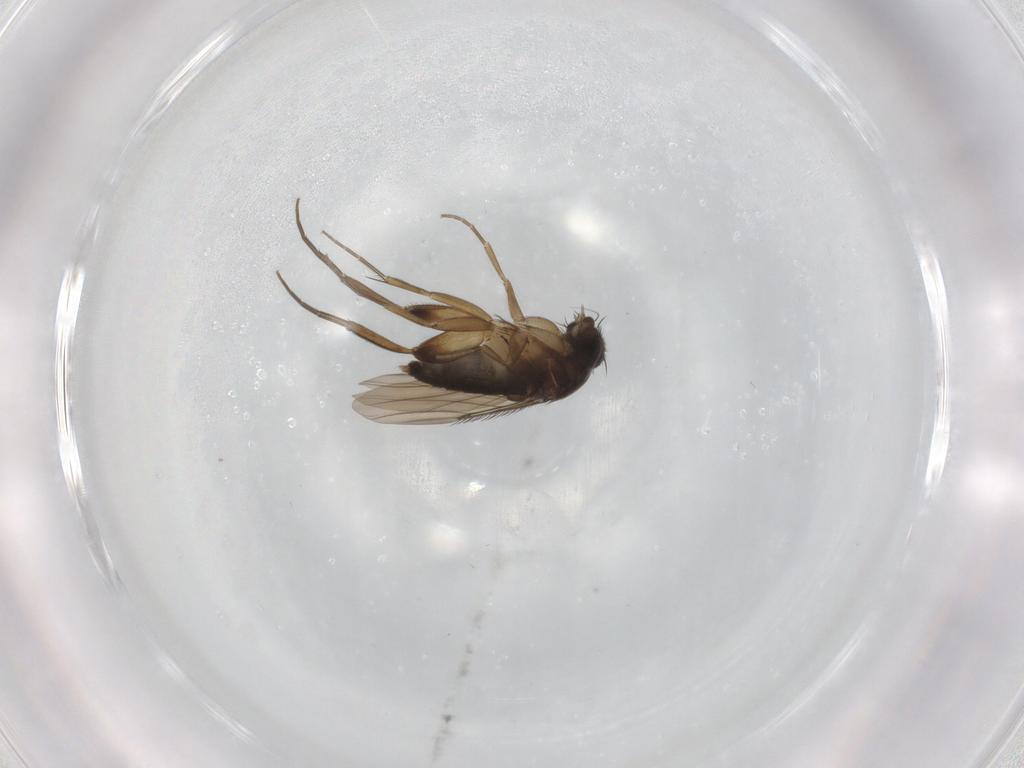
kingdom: Animalia
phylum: Arthropoda
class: Insecta
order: Diptera
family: Phoridae
